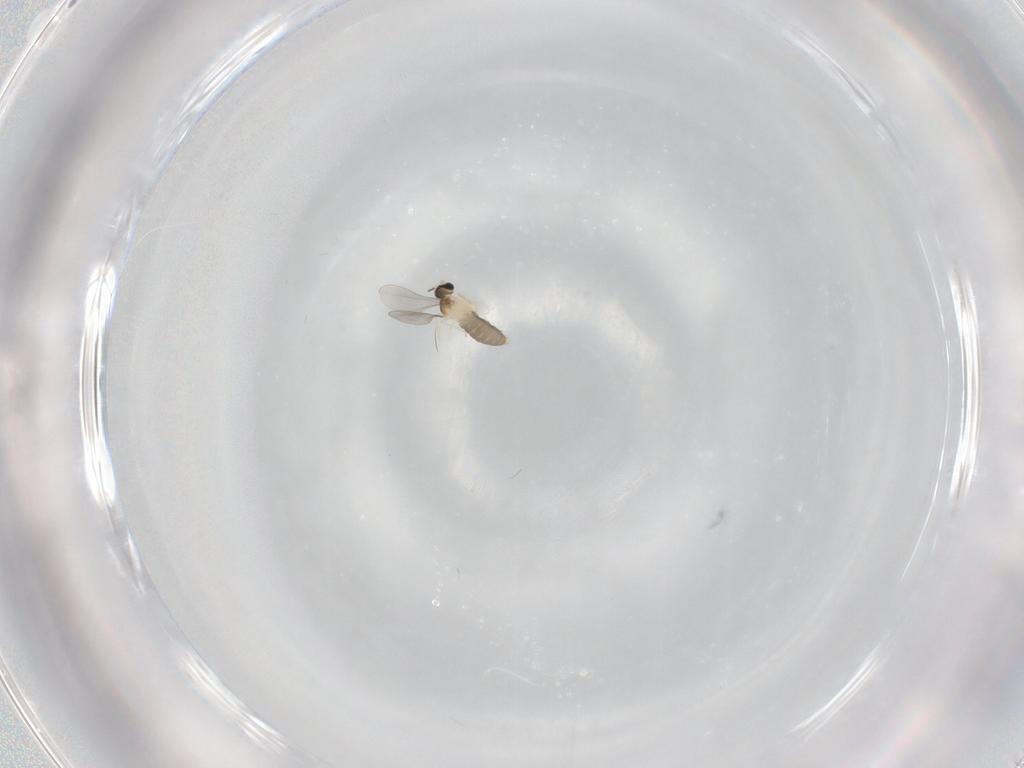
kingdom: Animalia
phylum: Arthropoda
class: Insecta
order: Diptera
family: Cecidomyiidae
